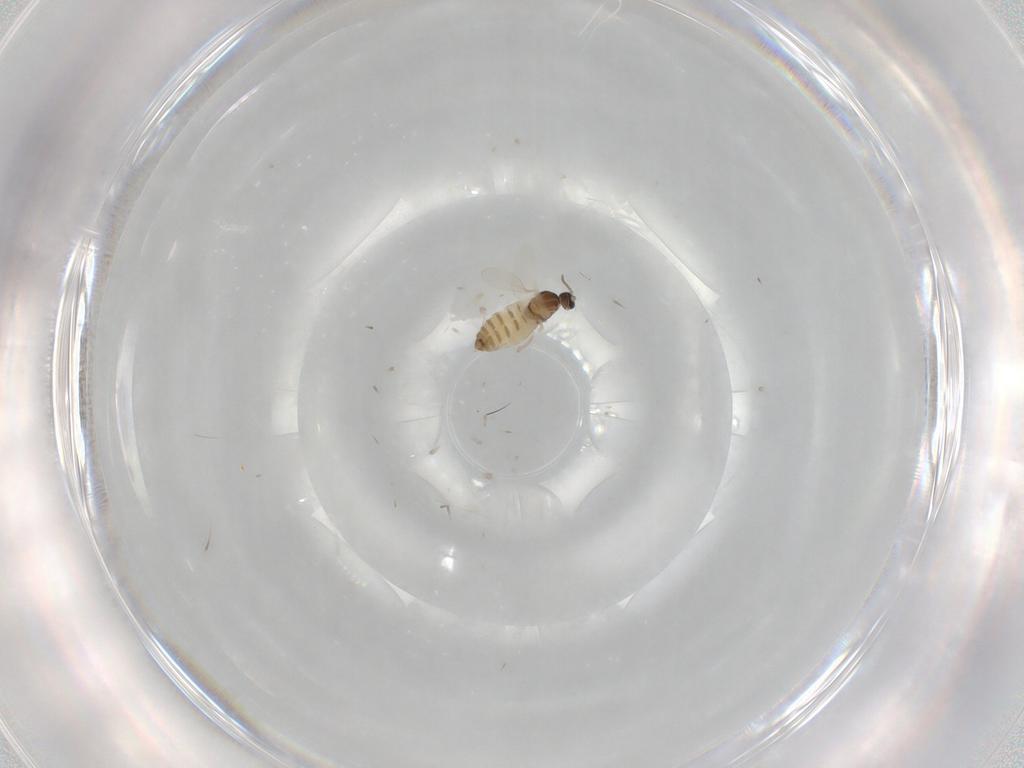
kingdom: Animalia
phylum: Arthropoda
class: Insecta
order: Diptera
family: Cecidomyiidae
